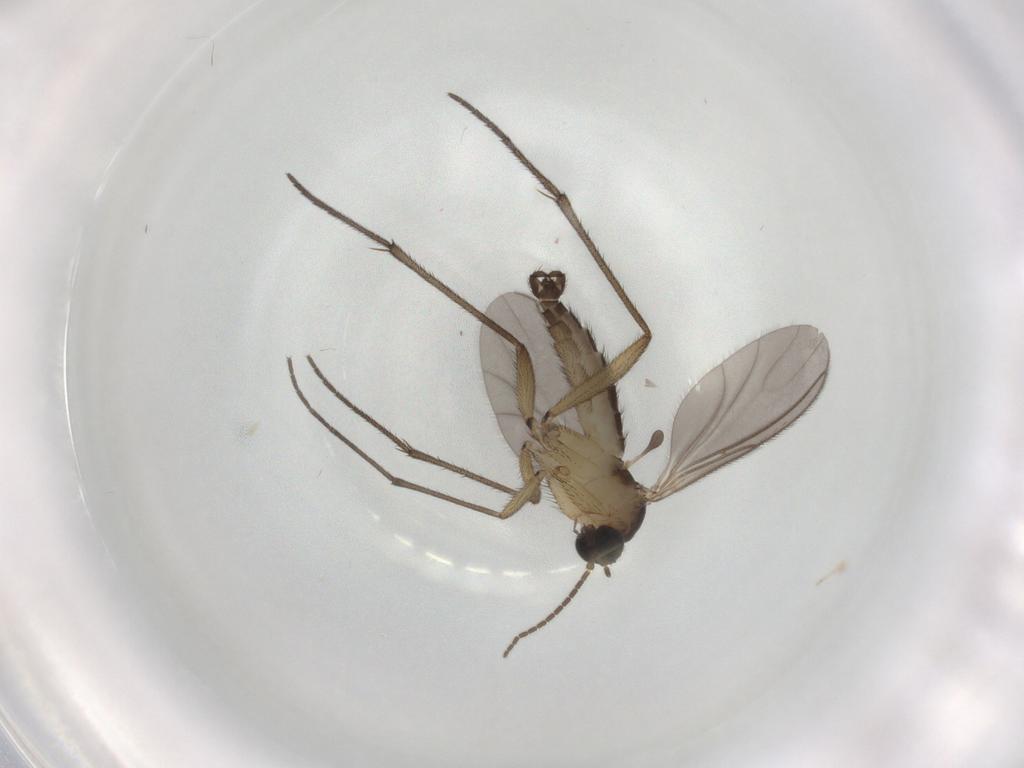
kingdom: Animalia
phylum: Arthropoda
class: Insecta
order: Diptera
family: Sciaridae
